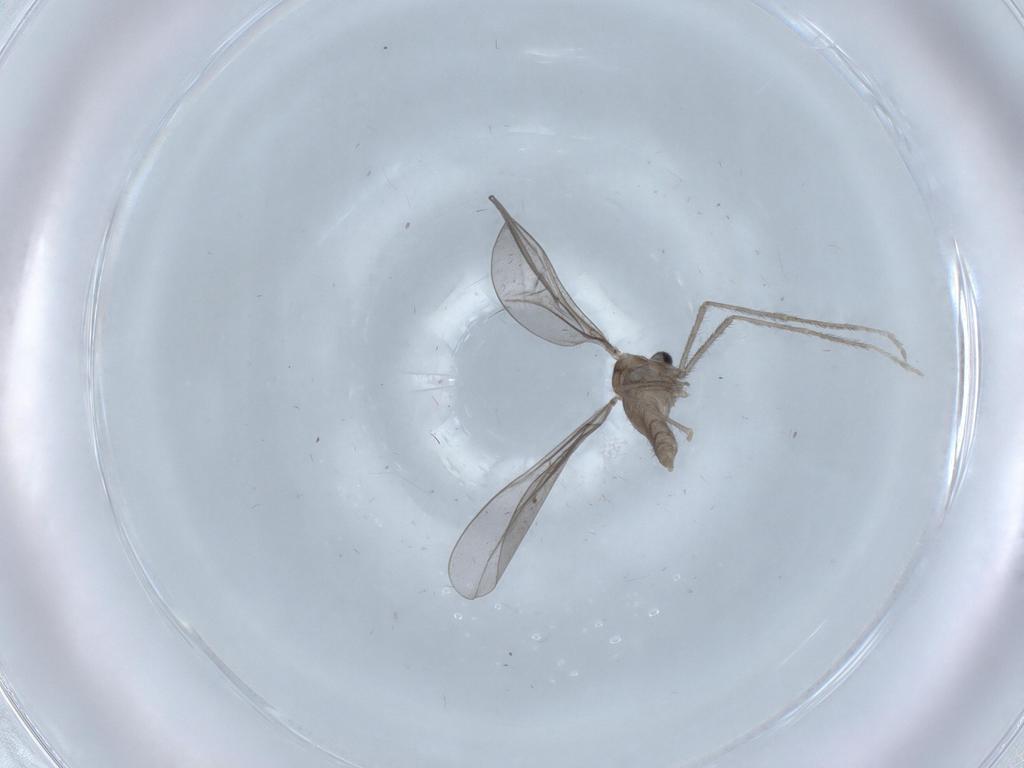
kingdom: Animalia
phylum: Arthropoda
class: Insecta
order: Diptera
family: Cecidomyiidae
